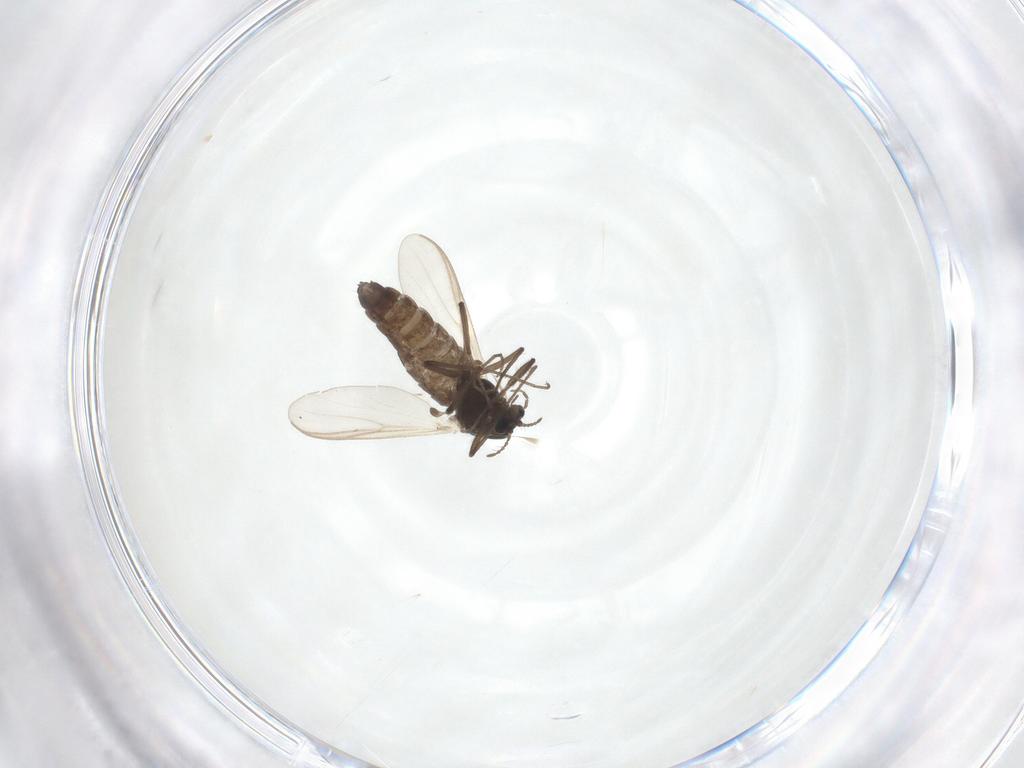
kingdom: Animalia
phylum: Arthropoda
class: Insecta
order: Diptera
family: Chironomidae
